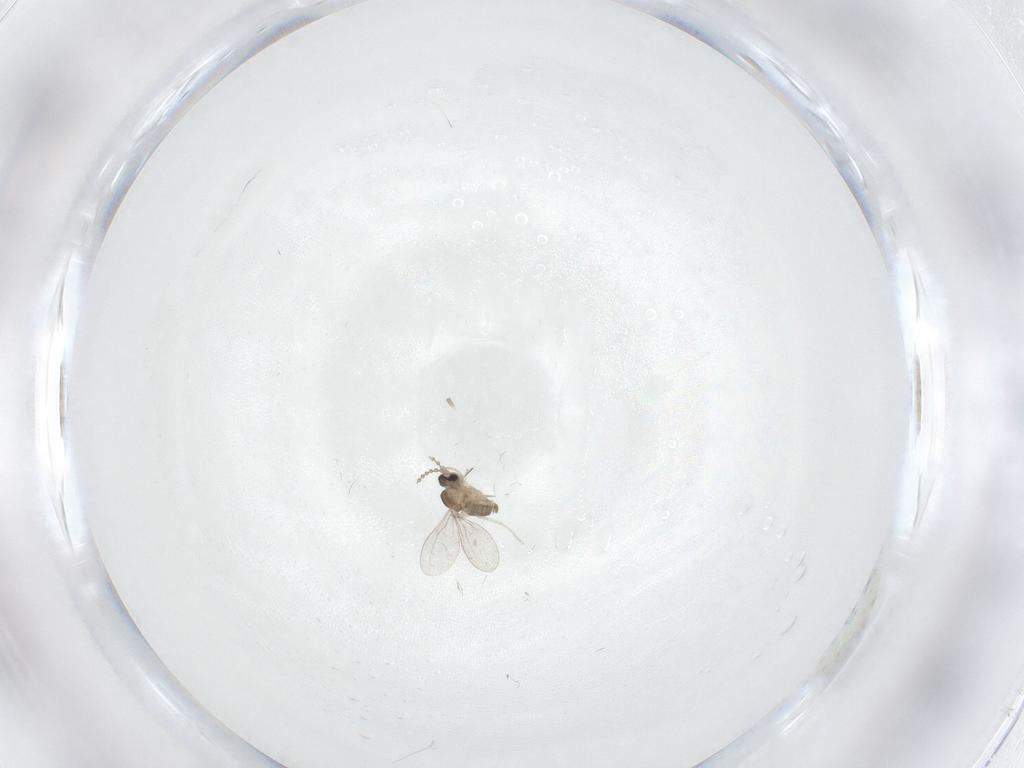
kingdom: Animalia
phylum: Arthropoda
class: Insecta
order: Diptera
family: Cecidomyiidae
